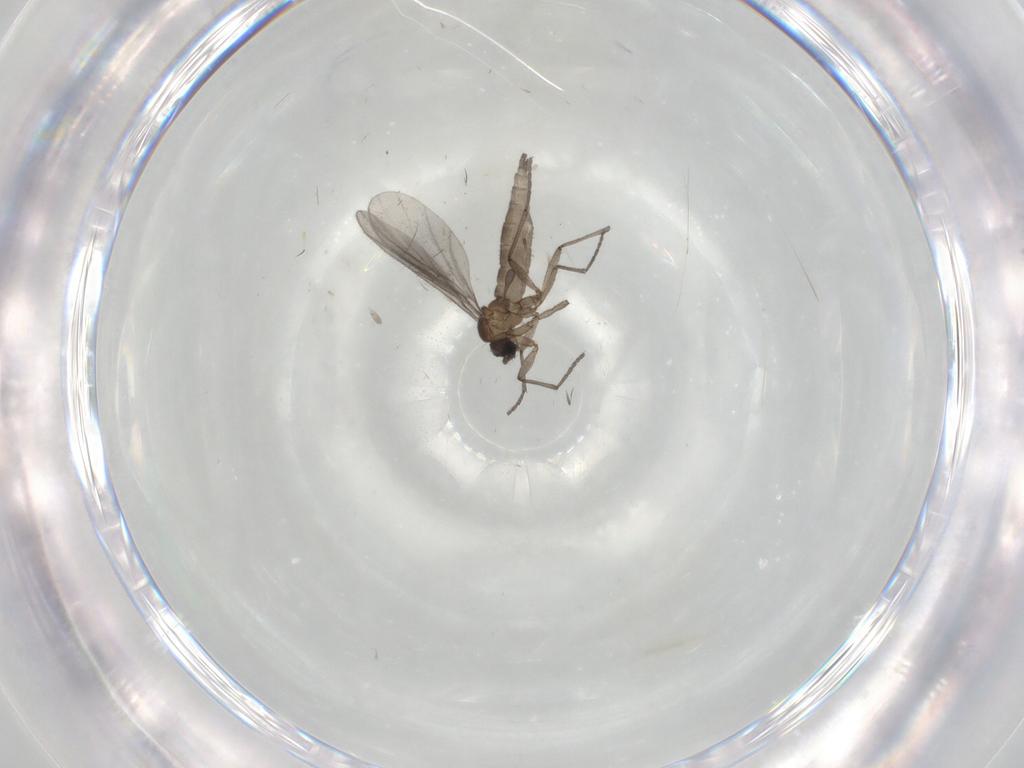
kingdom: Animalia
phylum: Arthropoda
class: Insecta
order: Diptera
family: Sciaridae
